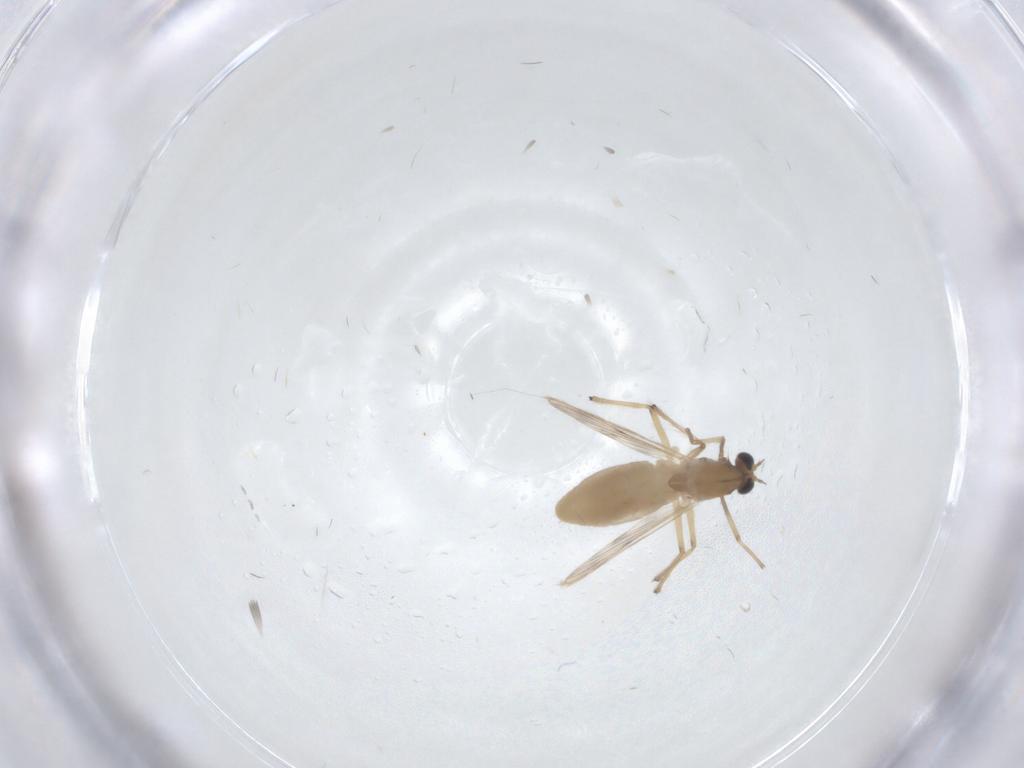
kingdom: Animalia
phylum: Arthropoda
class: Insecta
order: Diptera
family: Chironomidae
